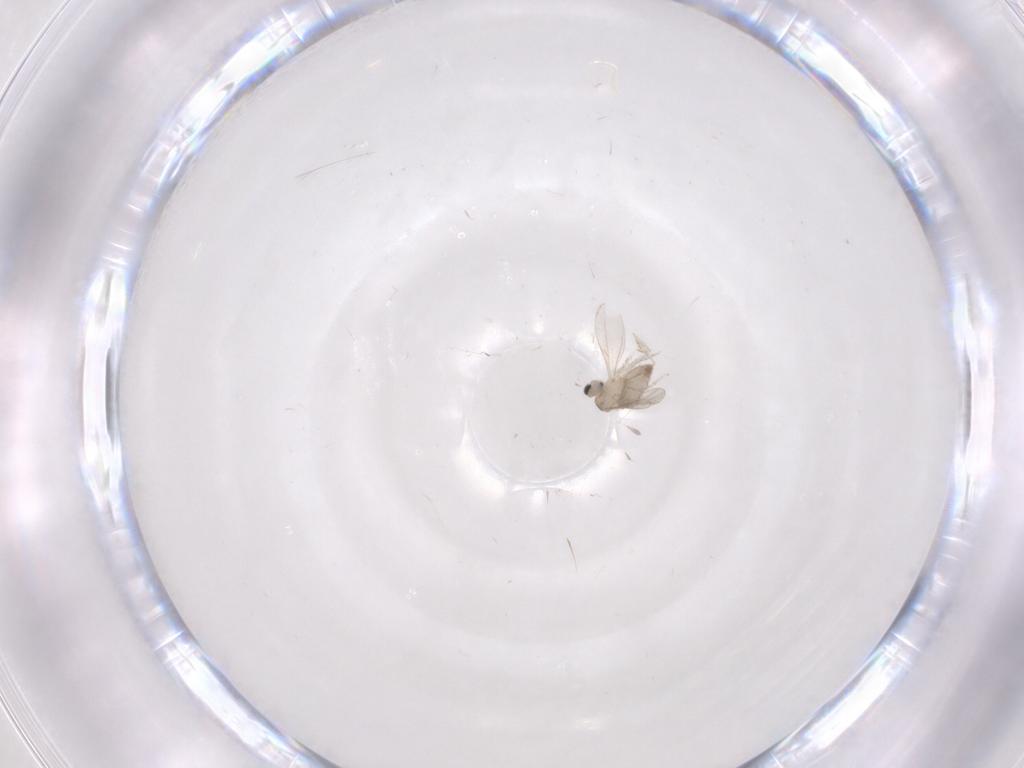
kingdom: Animalia
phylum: Arthropoda
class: Insecta
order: Diptera
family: Chironomidae
